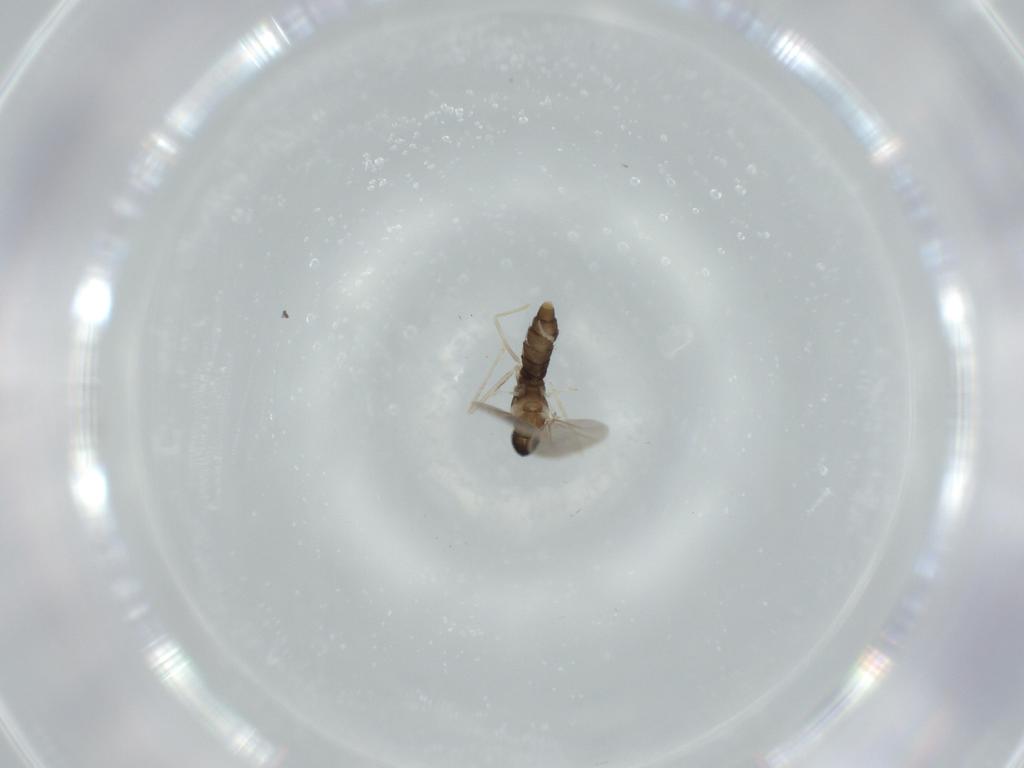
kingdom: Animalia
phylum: Arthropoda
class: Insecta
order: Diptera
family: Cecidomyiidae
